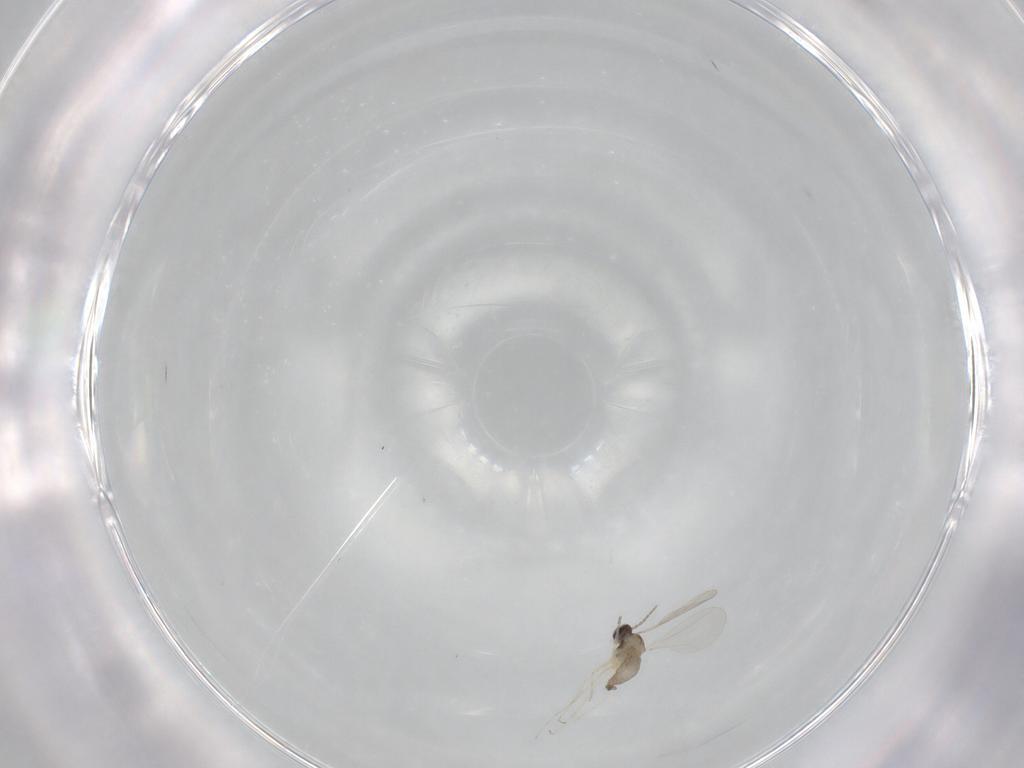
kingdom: Animalia
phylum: Arthropoda
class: Insecta
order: Diptera
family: Cecidomyiidae
